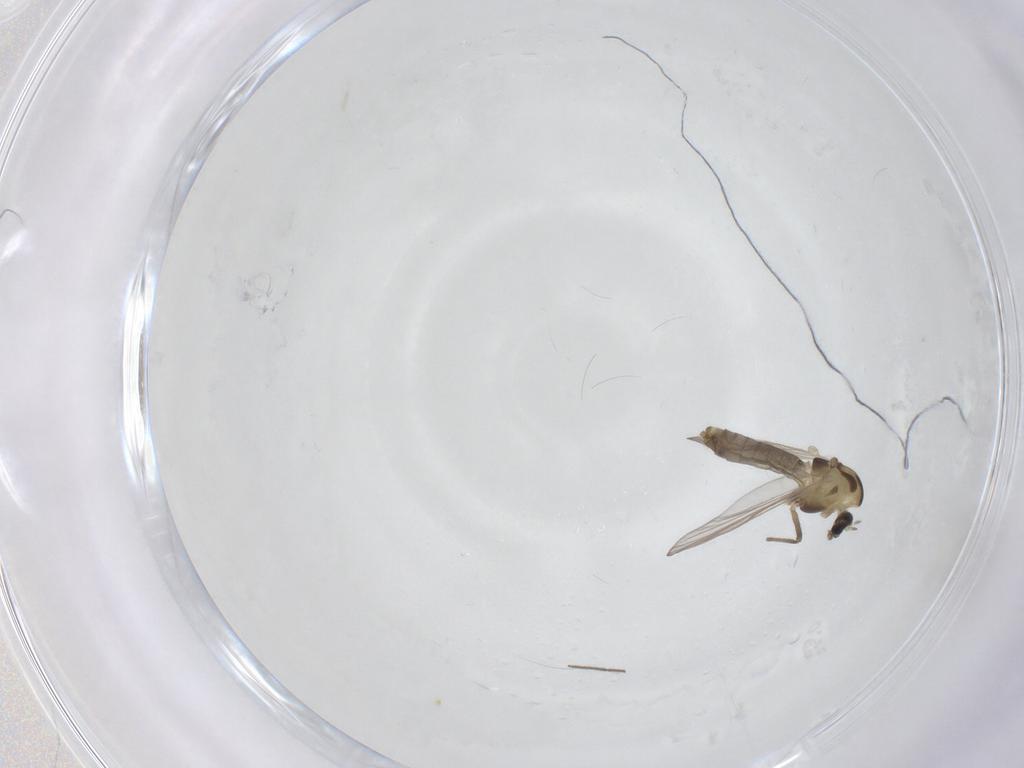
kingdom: Animalia
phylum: Arthropoda
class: Insecta
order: Diptera
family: Chironomidae
